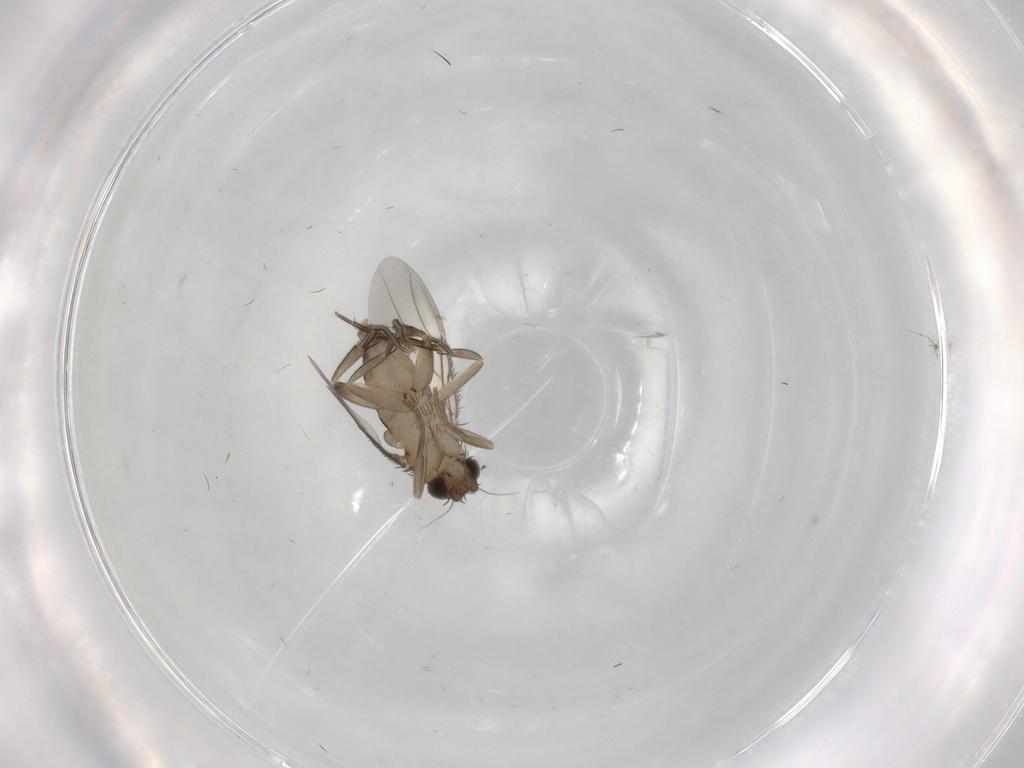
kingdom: Animalia
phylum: Arthropoda
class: Insecta
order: Diptera
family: Phoridae
